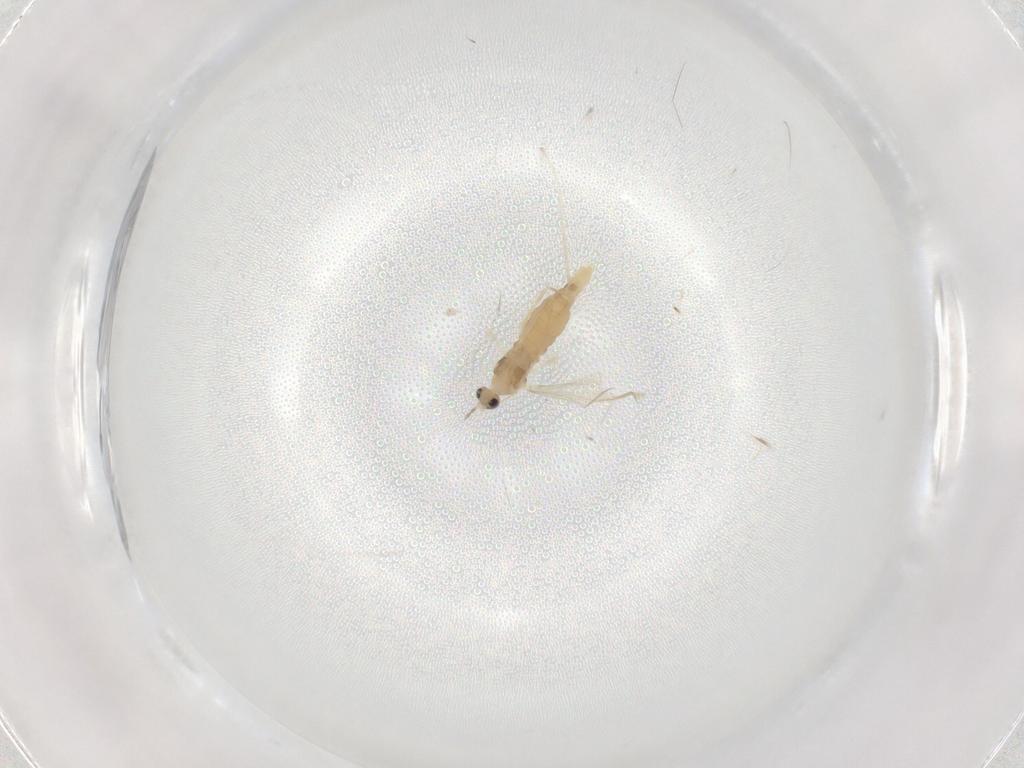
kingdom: Animalia
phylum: Arthropoda
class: Insecta
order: Diptera
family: Cecidomyiidae
